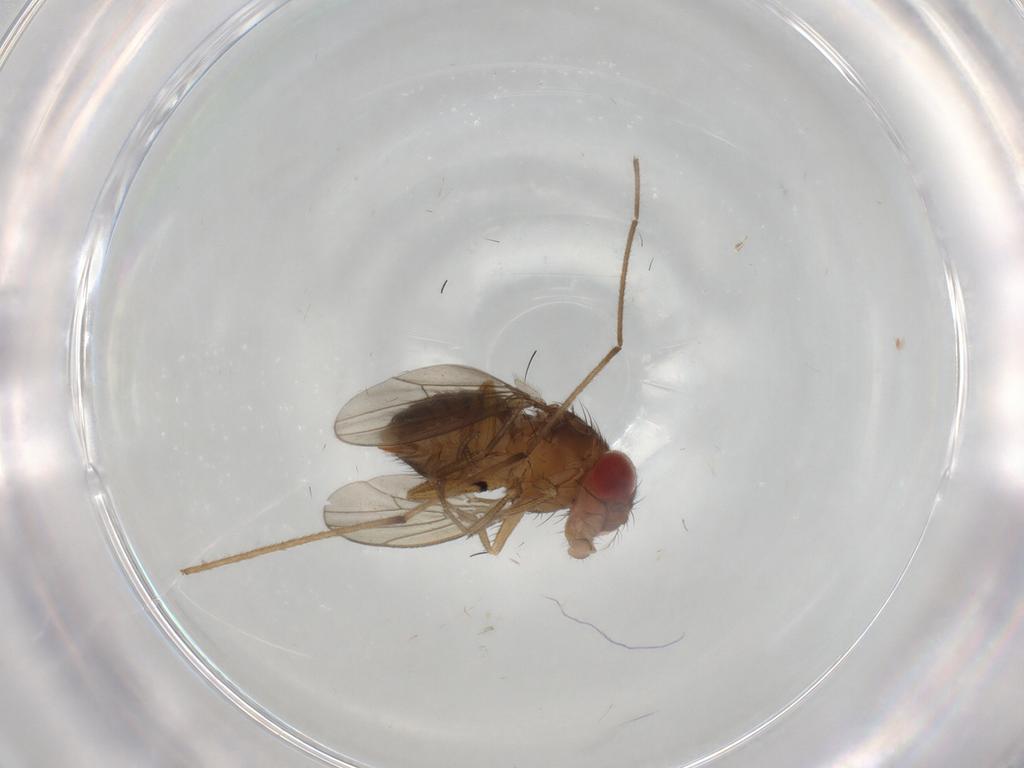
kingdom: Animalia
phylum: Arthropoda
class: Insecta
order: Diptera
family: Drosophilidae
